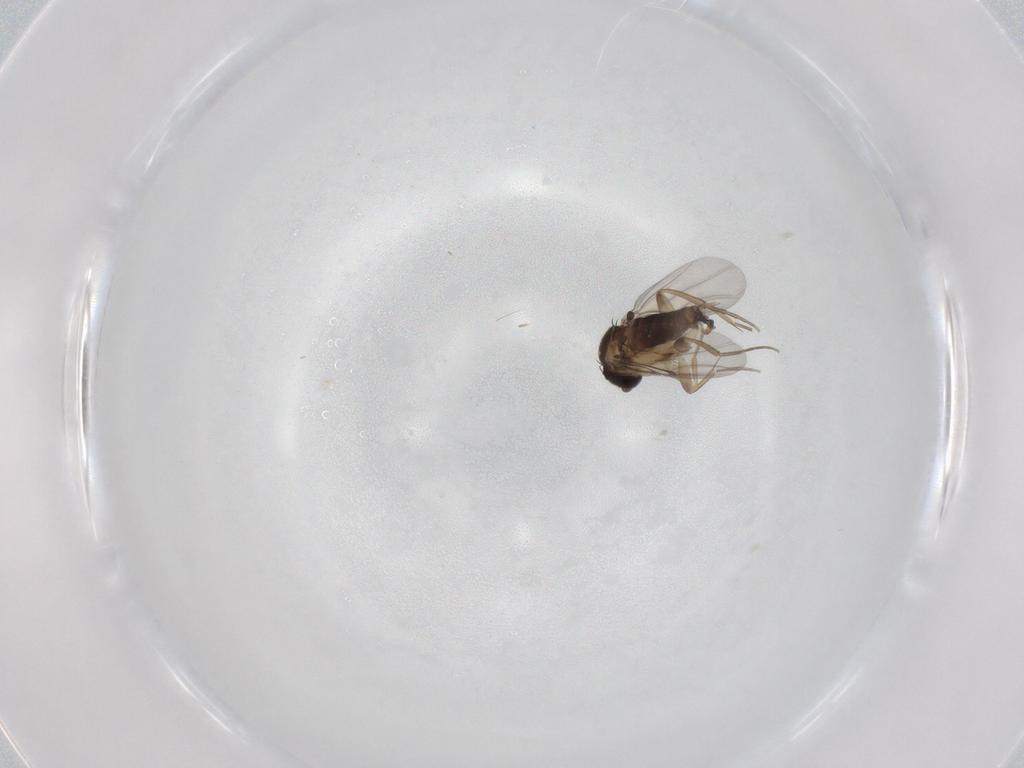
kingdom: Animalia
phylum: Arthropoda
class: Insecta
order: Diptera
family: Phoridae
